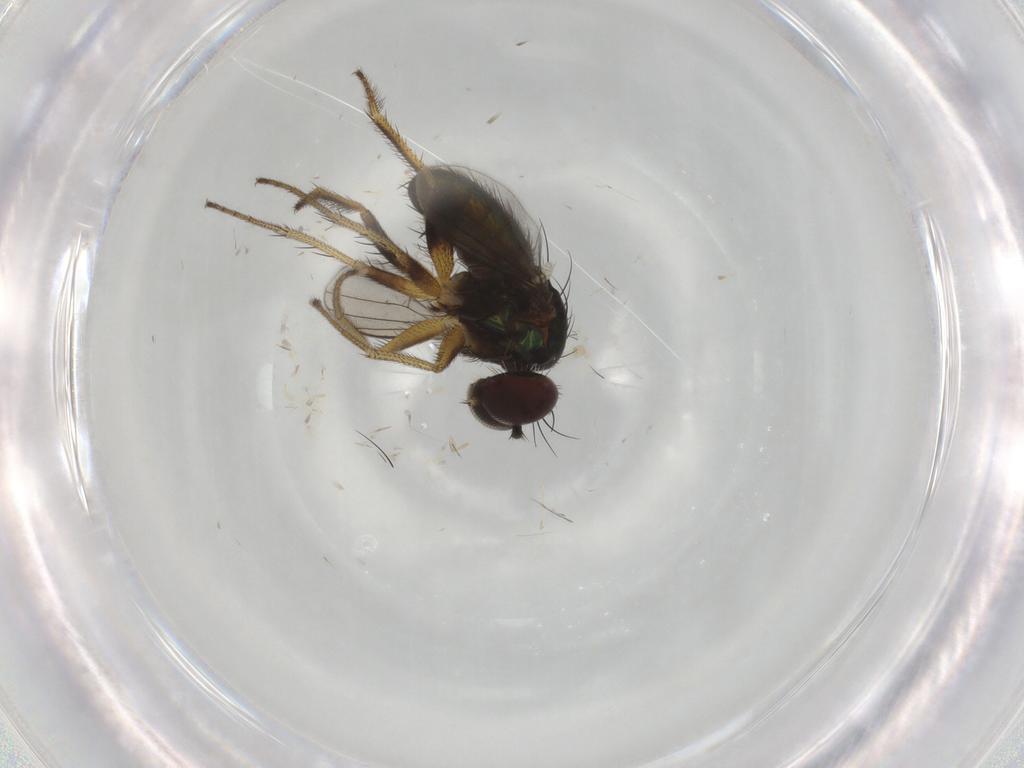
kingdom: Animalia
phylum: Arthropoda
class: Insecta
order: Diptera
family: Dolichopodidae
